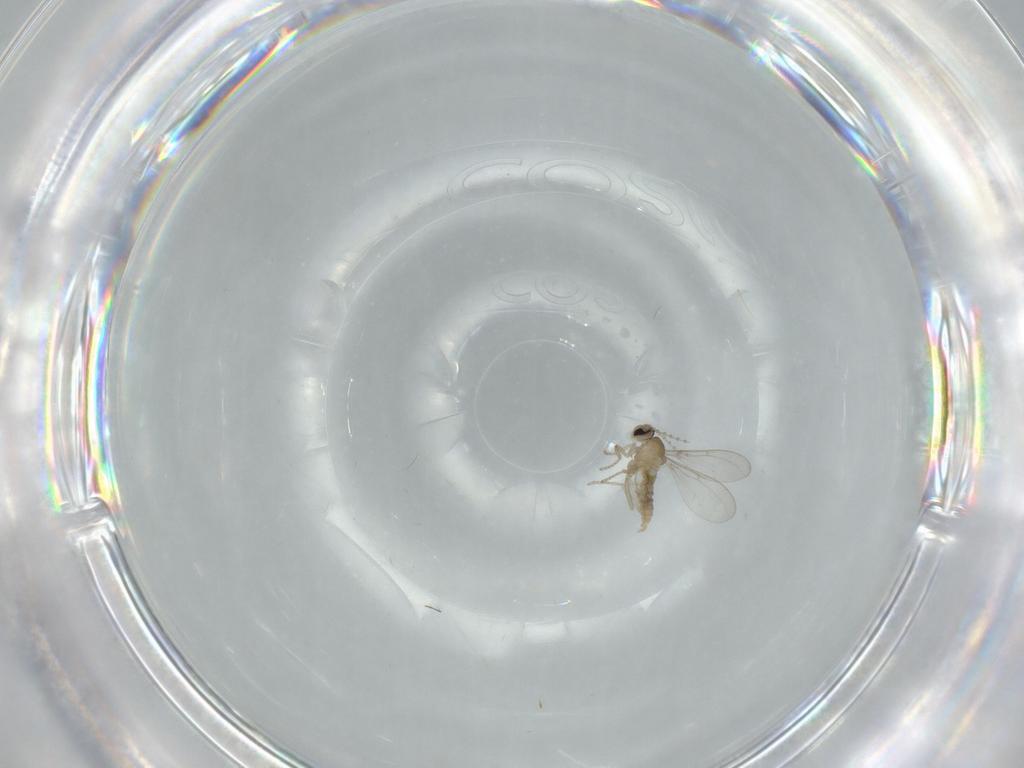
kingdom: Animalia
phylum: Arthropoda
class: Insecta
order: Diptera
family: Cecidomyiidae
